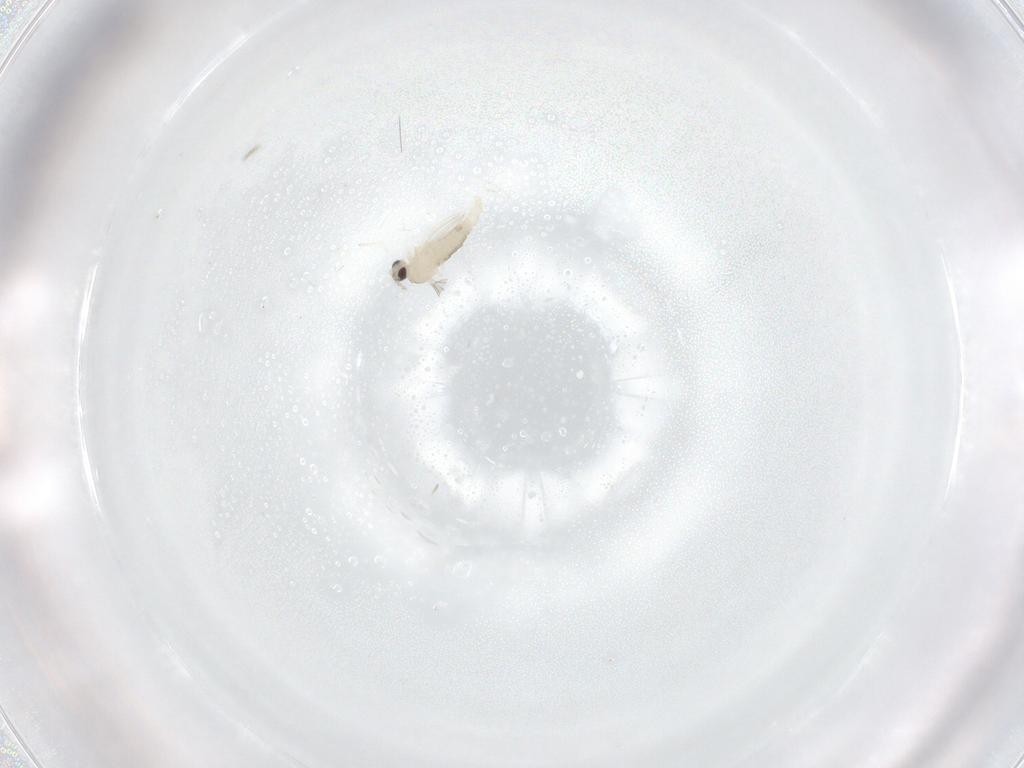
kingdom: Animalia
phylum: Arthropoda
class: Insecta
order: Diptera
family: Cecidomyiidae
